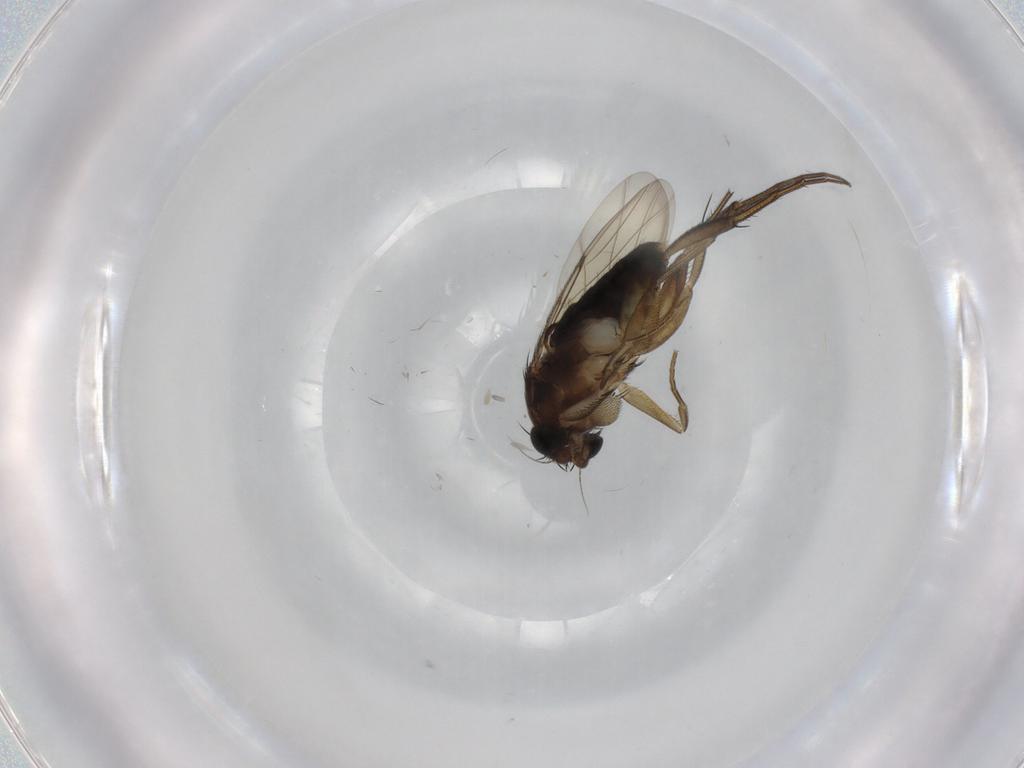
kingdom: Animalia
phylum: Arthropoda
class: Insecta
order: Diptera
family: Phoridae
